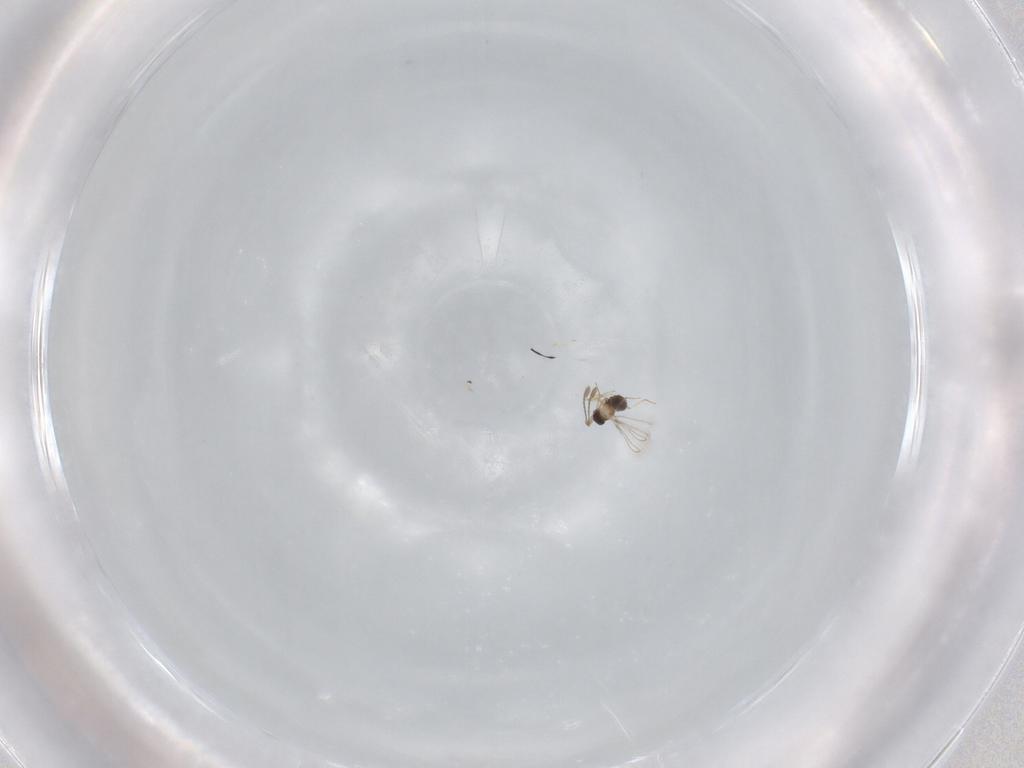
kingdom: Animalia
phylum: Arthropoda
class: Insecta
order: Hymenoptera
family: Mymaridae
